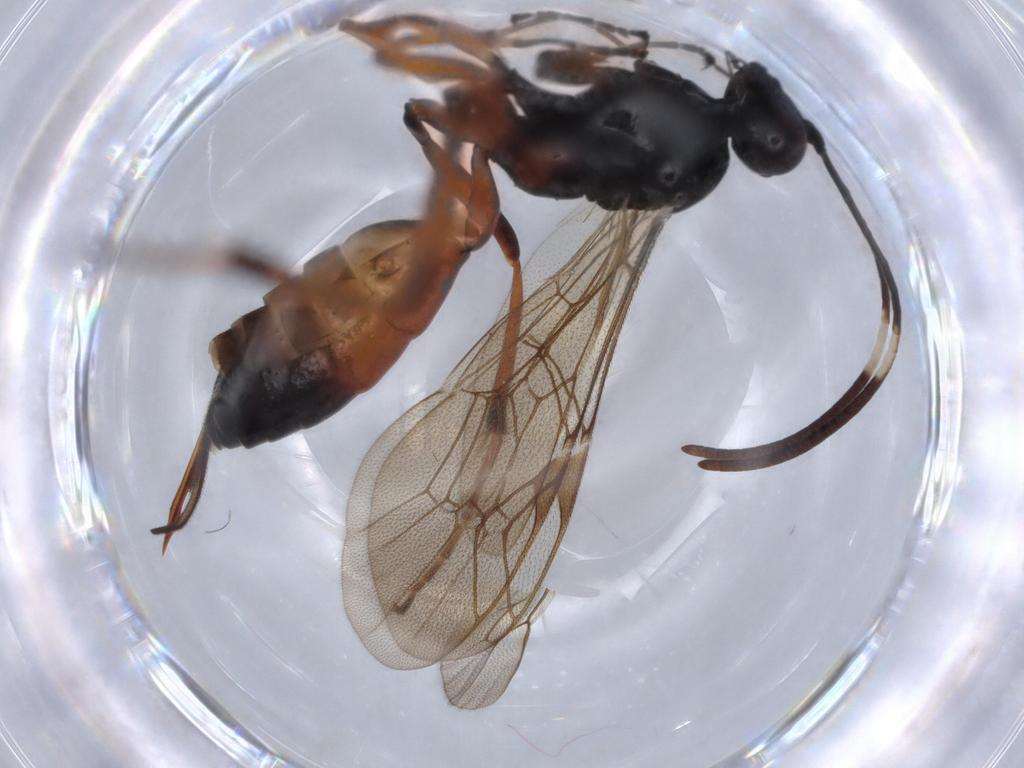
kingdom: Animalia
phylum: Arthropoda
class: Insecta
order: Hymenoptera
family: Ichneumonidae
